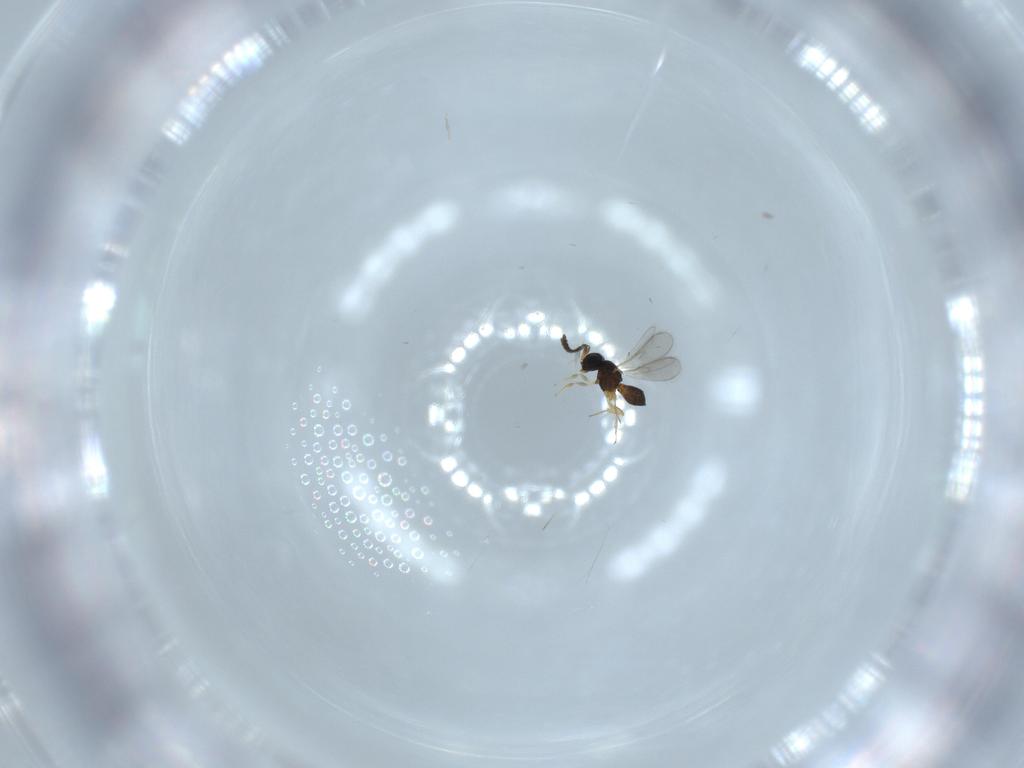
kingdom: Animalia
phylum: Arthropoda
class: Insecta
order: Hymenoptera
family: Scelionidae
